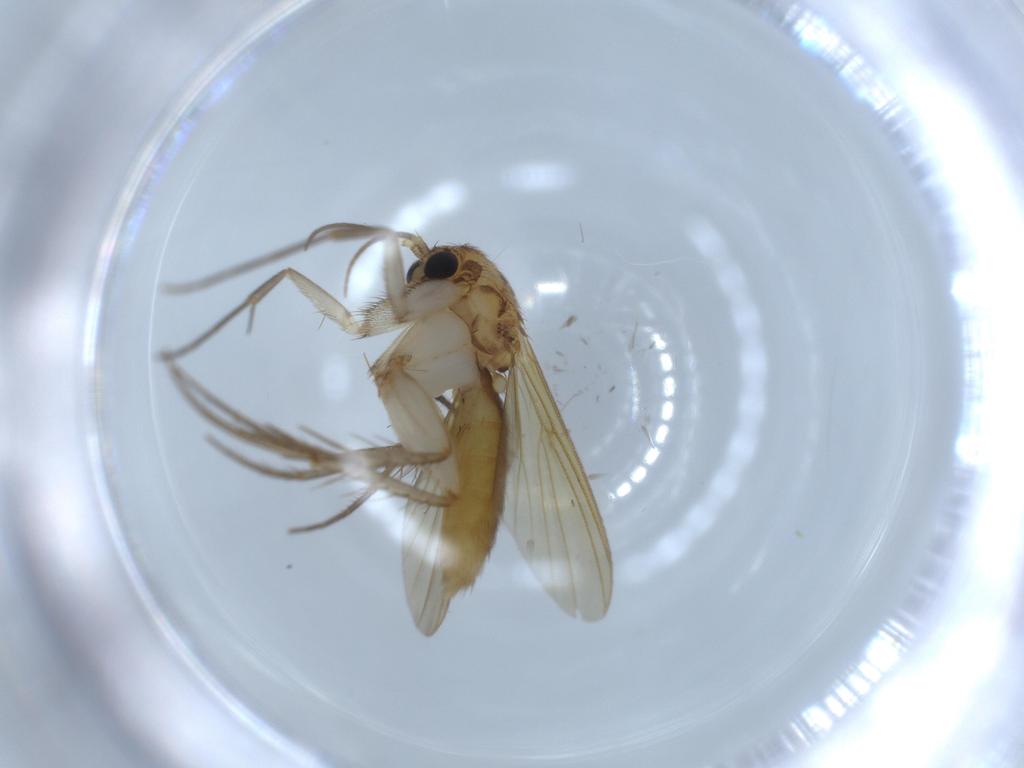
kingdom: Animalia
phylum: Arthropoda
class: Insecta
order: Diptera
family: Mycetophilidae
